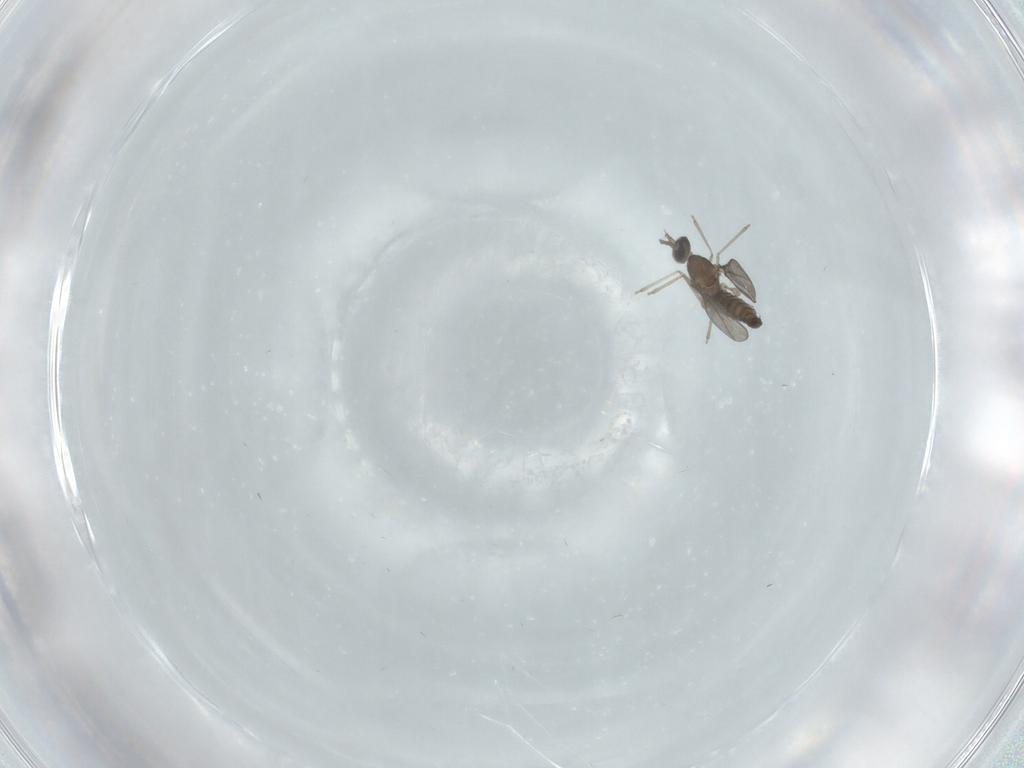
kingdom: Animalia
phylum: Arthropoda
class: Insecta
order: Diptera
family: Cecidomyiidae
